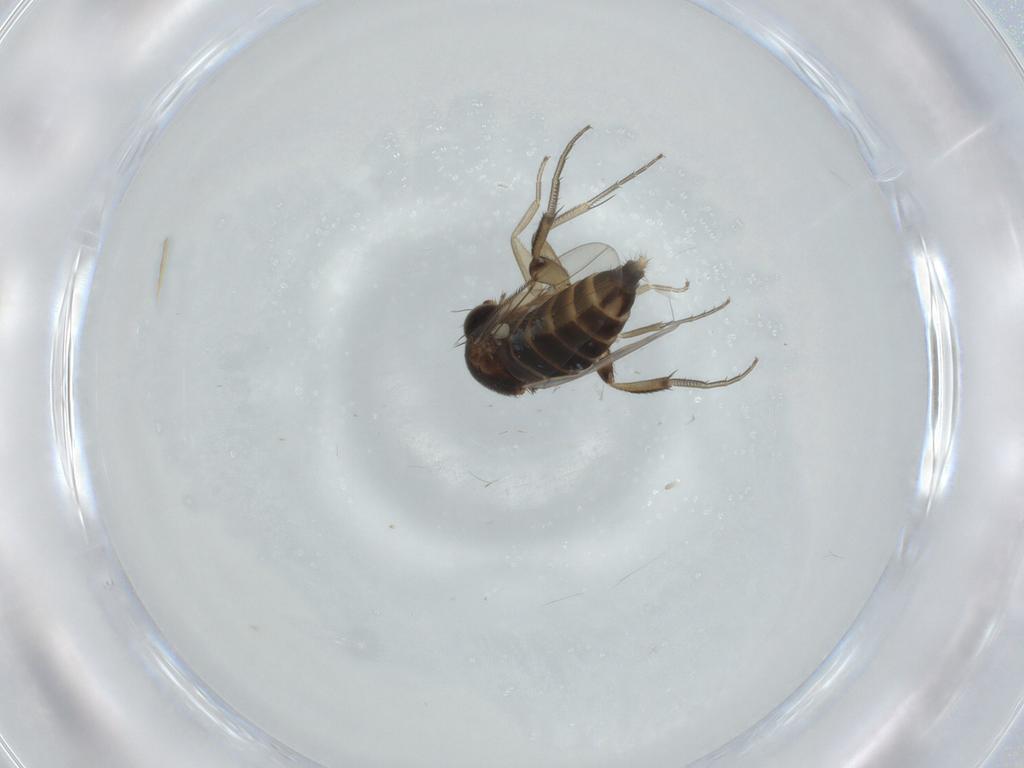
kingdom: Animalia
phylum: Arthropoda
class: Insecta
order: Diptera
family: Phoridae
